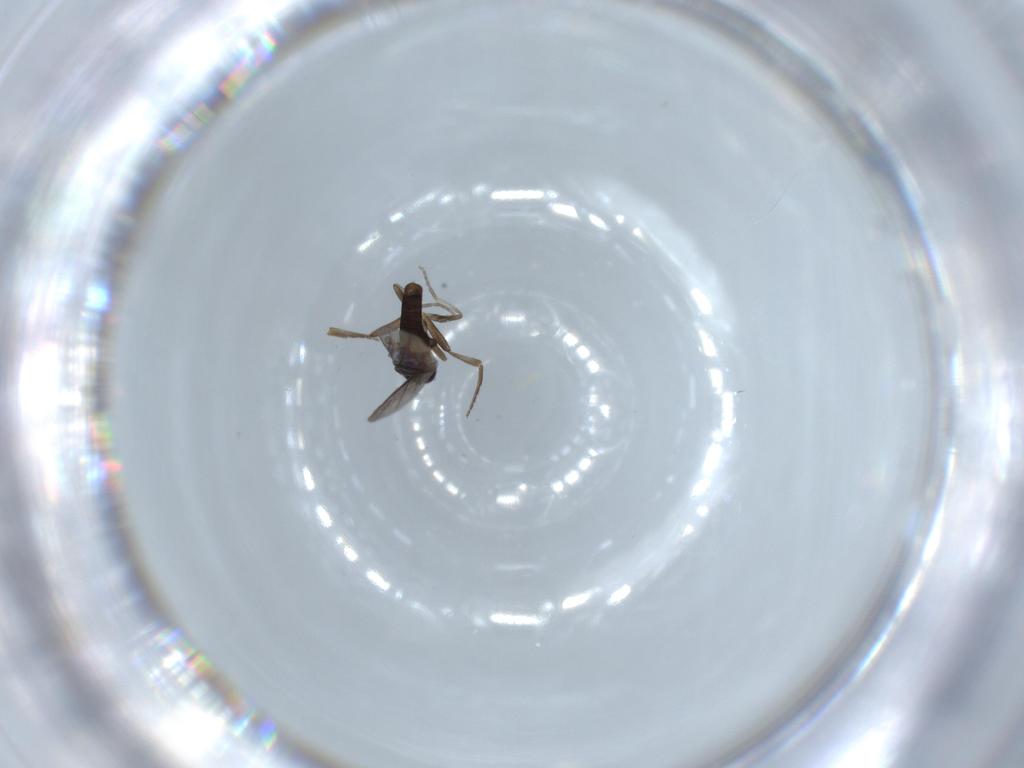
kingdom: Animalia
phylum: Arthropoda
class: Insecta
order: Diptera
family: Phoridae
